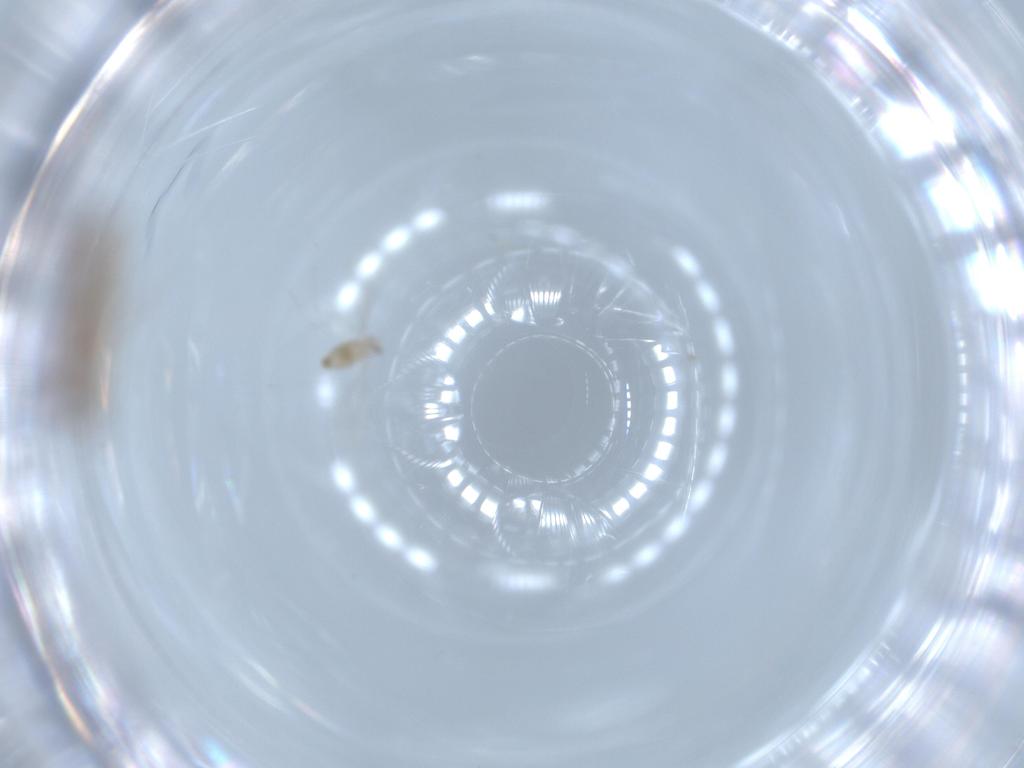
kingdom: Animalia
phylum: Arthropoda
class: Insecta
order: Hymenoptera
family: Scelionidae
